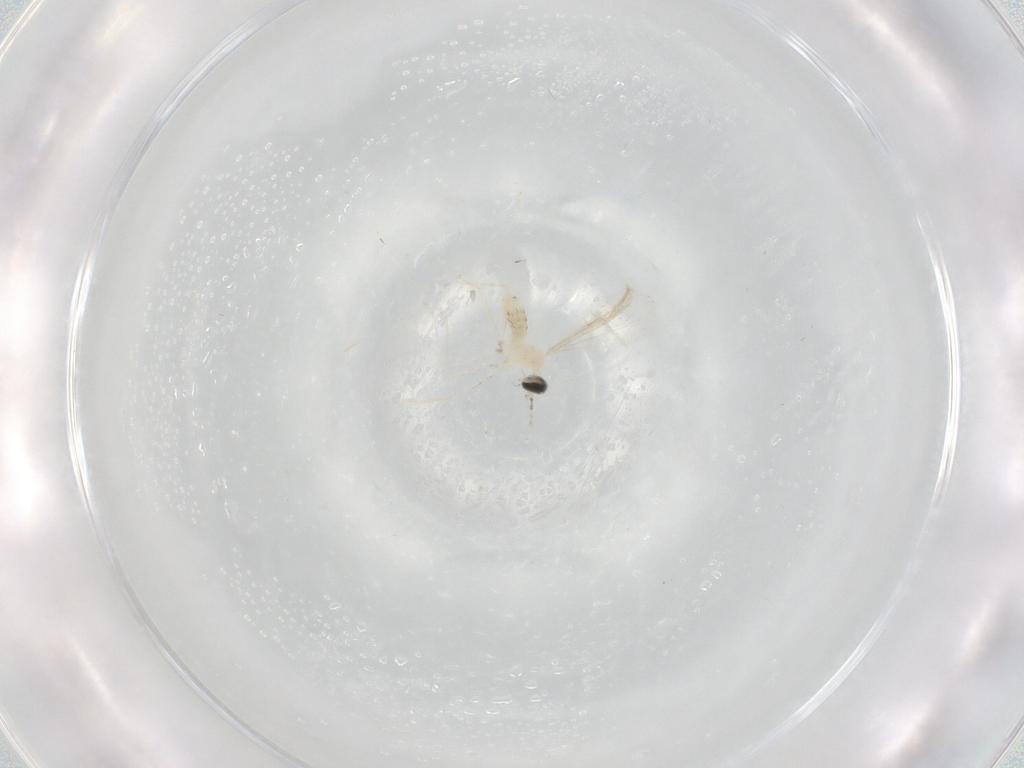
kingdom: Animalia
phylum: Arthropoda
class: Insecta
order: Diptera
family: Cecidomyiidae
